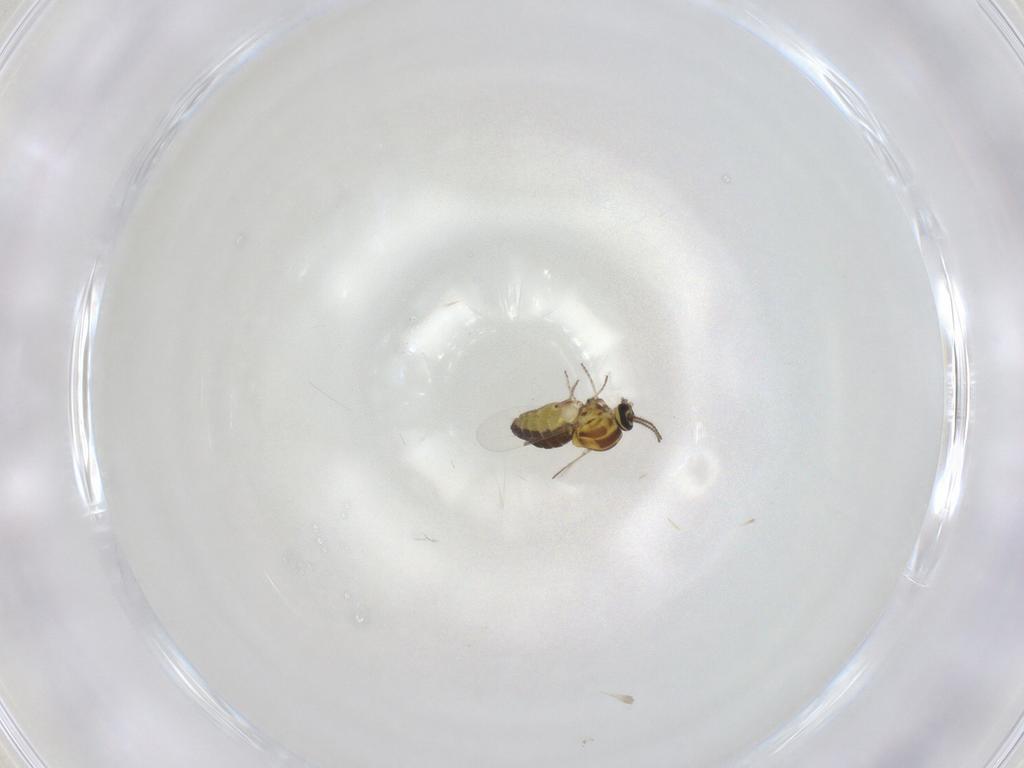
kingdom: Animalia
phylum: Arthropoda
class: Insecta
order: Diptera
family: Ceratopogonidae
